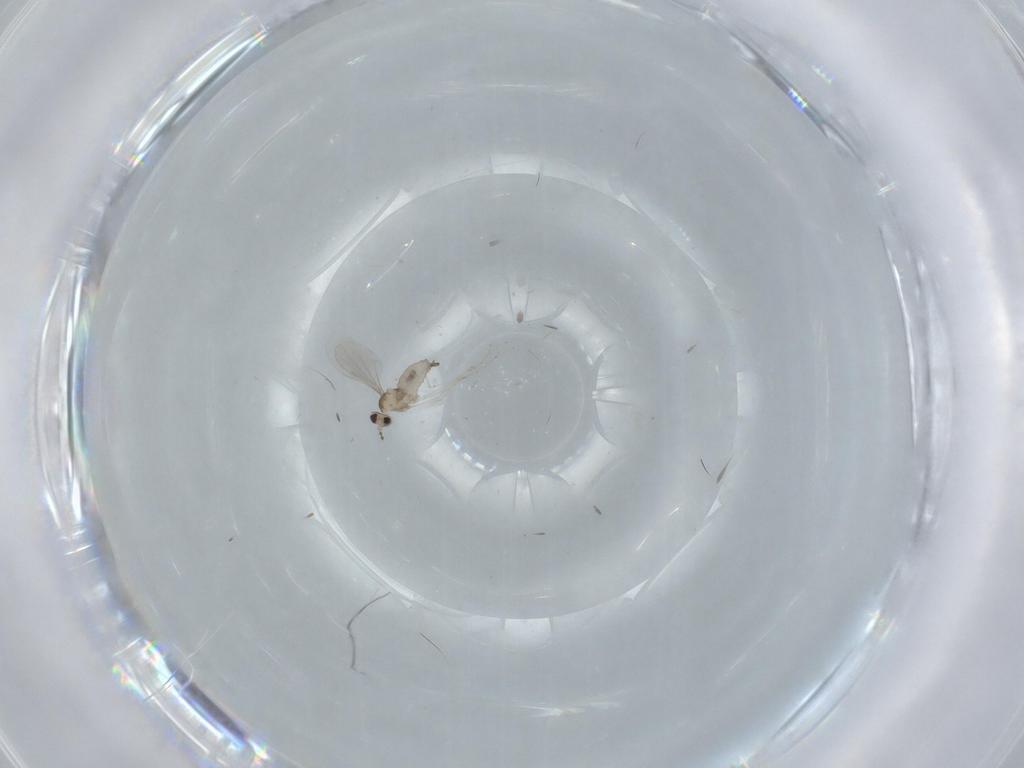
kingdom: Animalia
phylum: Arthropoda
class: Insecta
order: Diptera
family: Cecidomyiidae
